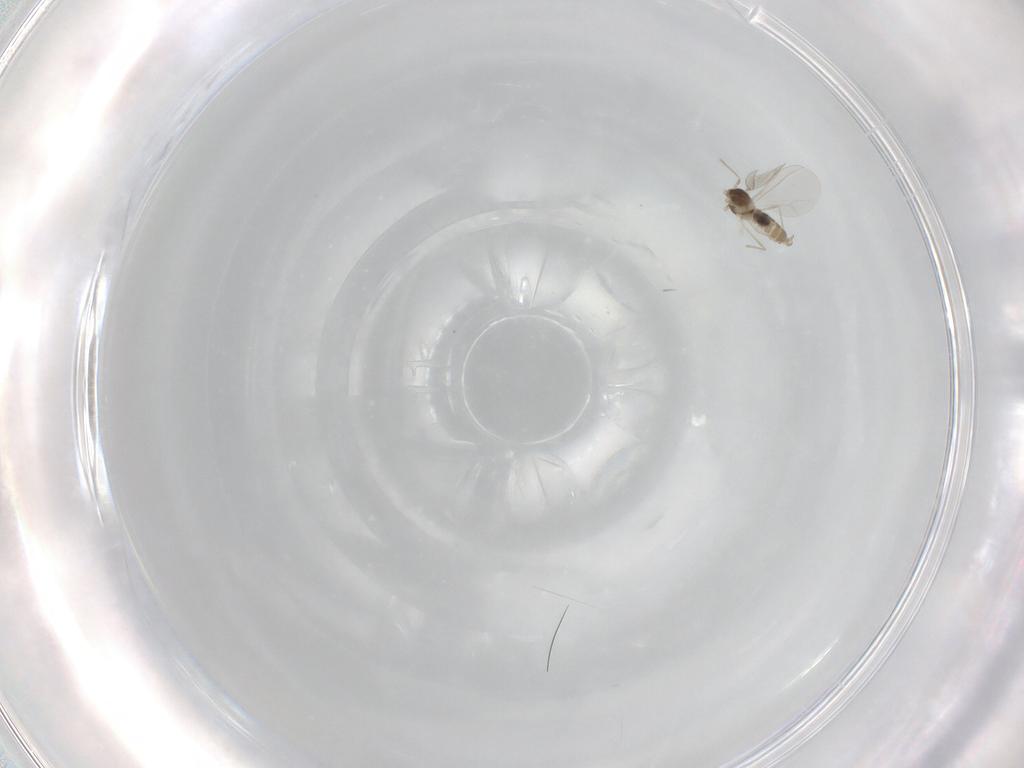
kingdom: Animalia
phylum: Arthropoda
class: Insecta
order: Diptera
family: Cecidomyiidae
